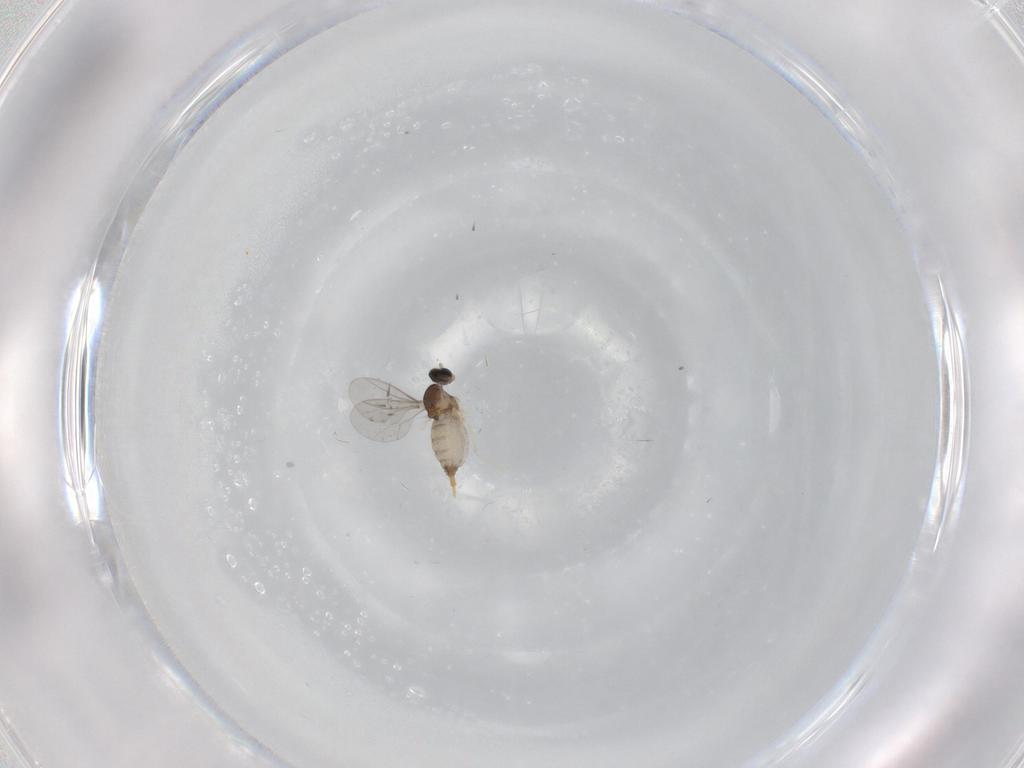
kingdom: Animalia
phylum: Arthropoda
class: Insecta
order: Diptera
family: Cecidomyiidae
